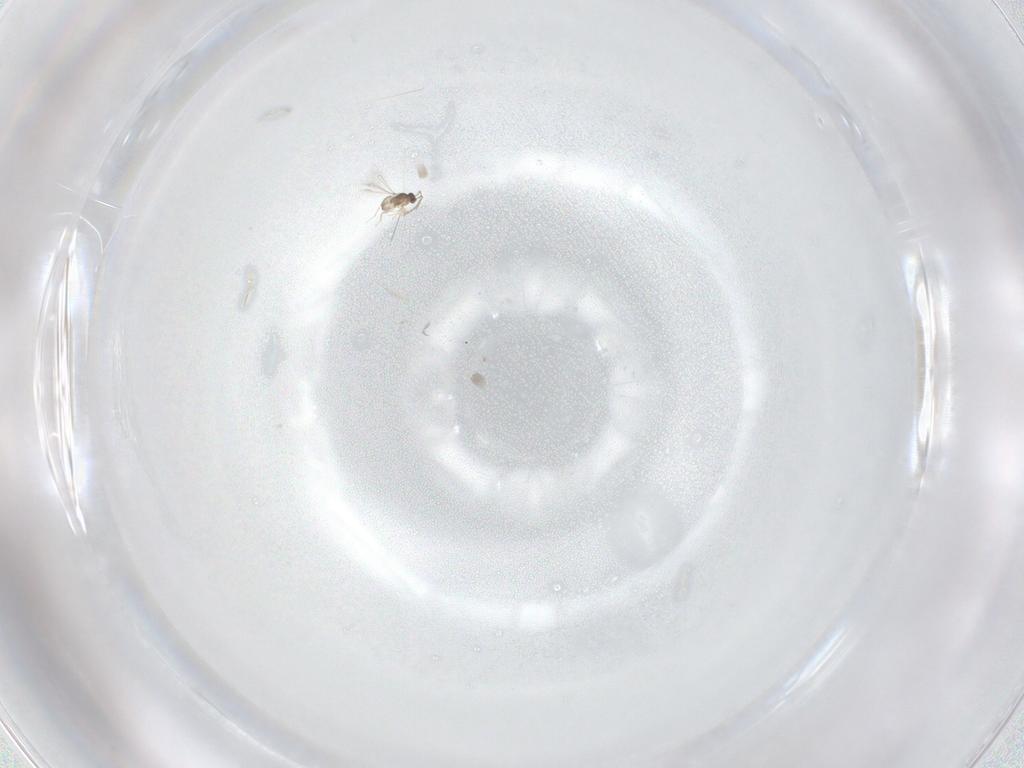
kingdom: Animalia
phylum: Arthropoda
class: Insecta
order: Hymenoptera
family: Mymaridae
